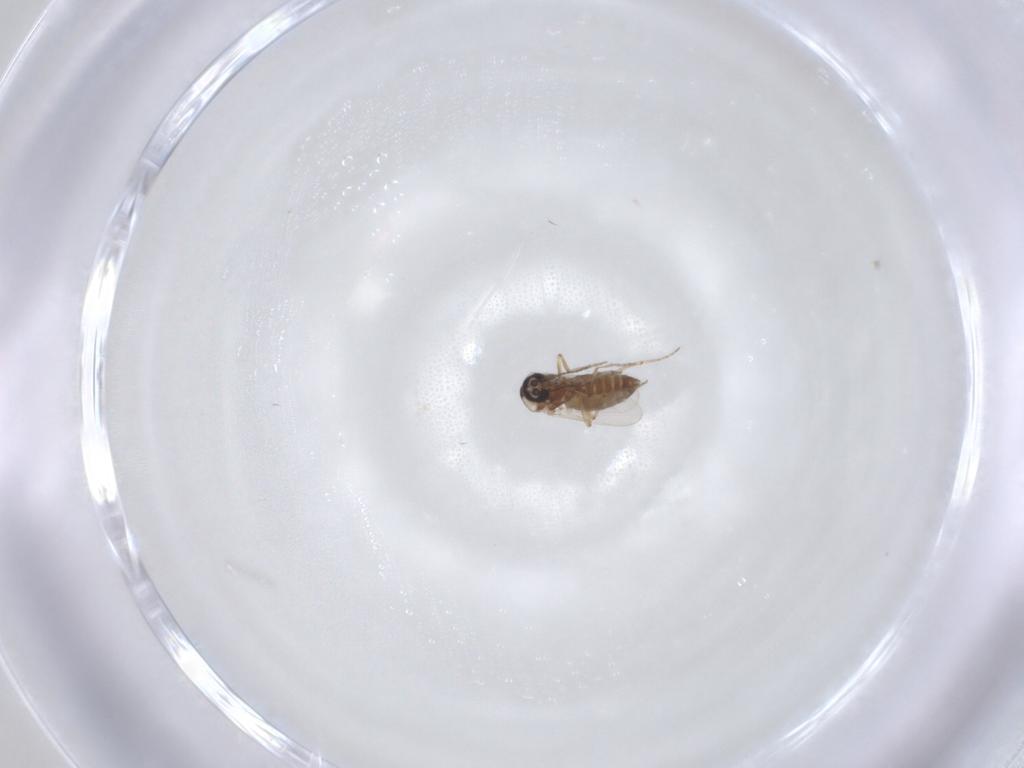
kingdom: Animalia
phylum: Arthropoda
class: Insecta
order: Diptera
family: Ceratopogonidae
